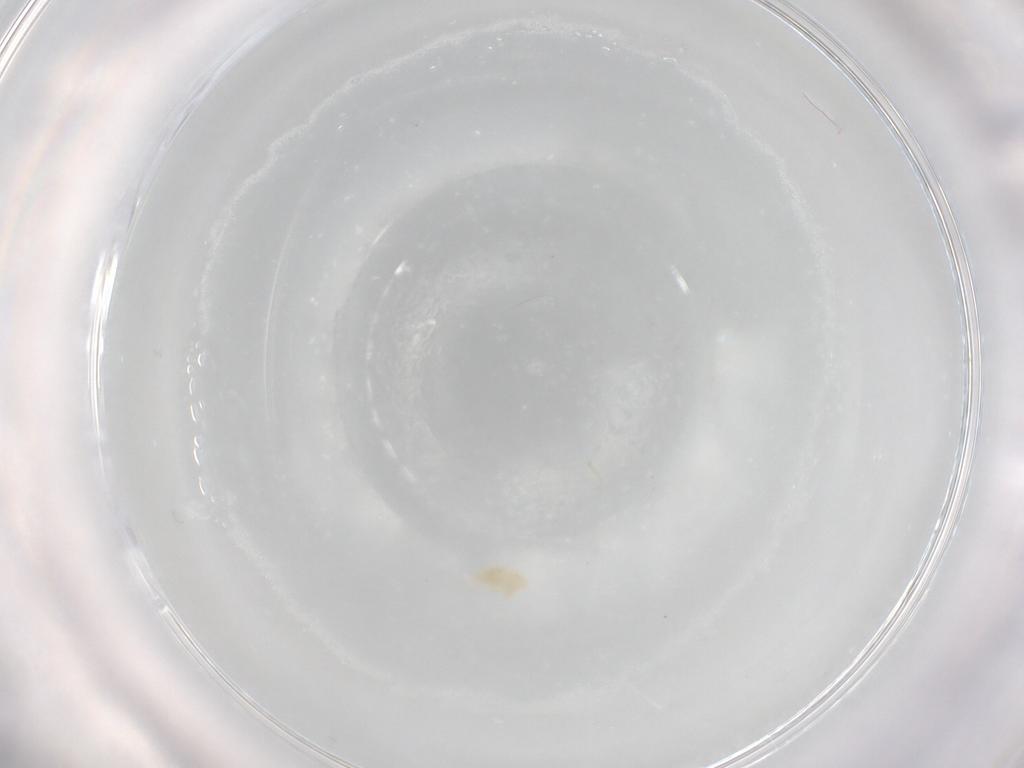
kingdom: Animalia
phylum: Arthropoda
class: Arachnida
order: Trombidiformes
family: Eupodidae
